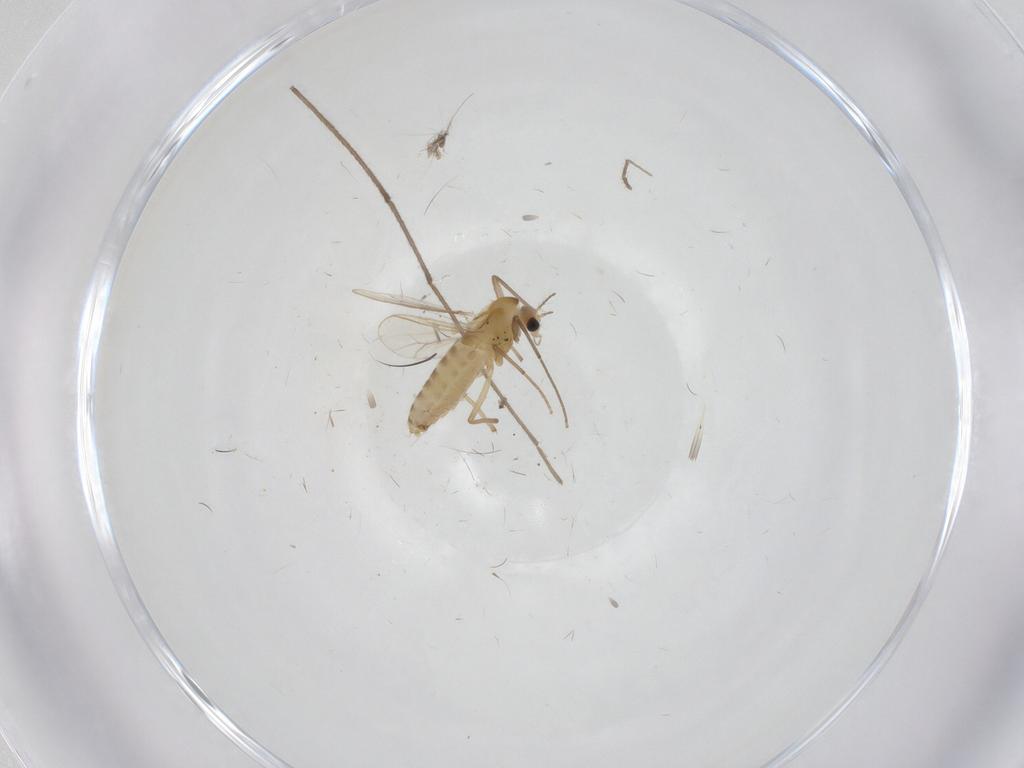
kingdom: Animalia
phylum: Arthropoda
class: Insecta
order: Diptera
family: Chironomidae
